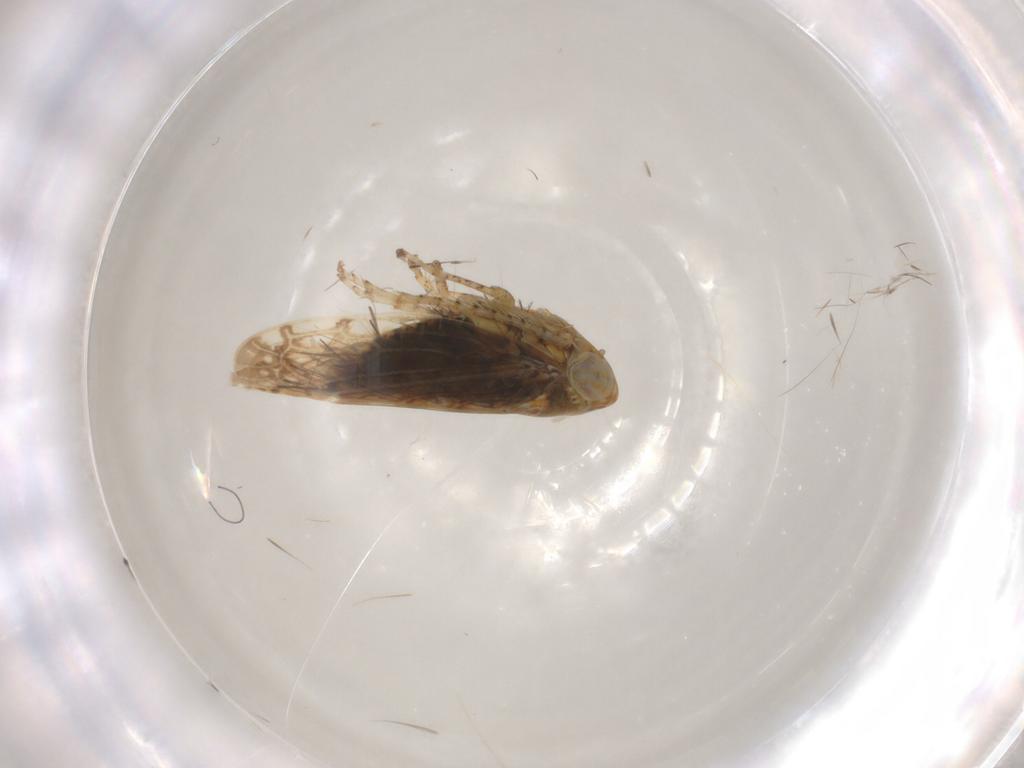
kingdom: Animalia
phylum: Arthropoda
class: Insecta
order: Hemiptera
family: Cicadellidae
